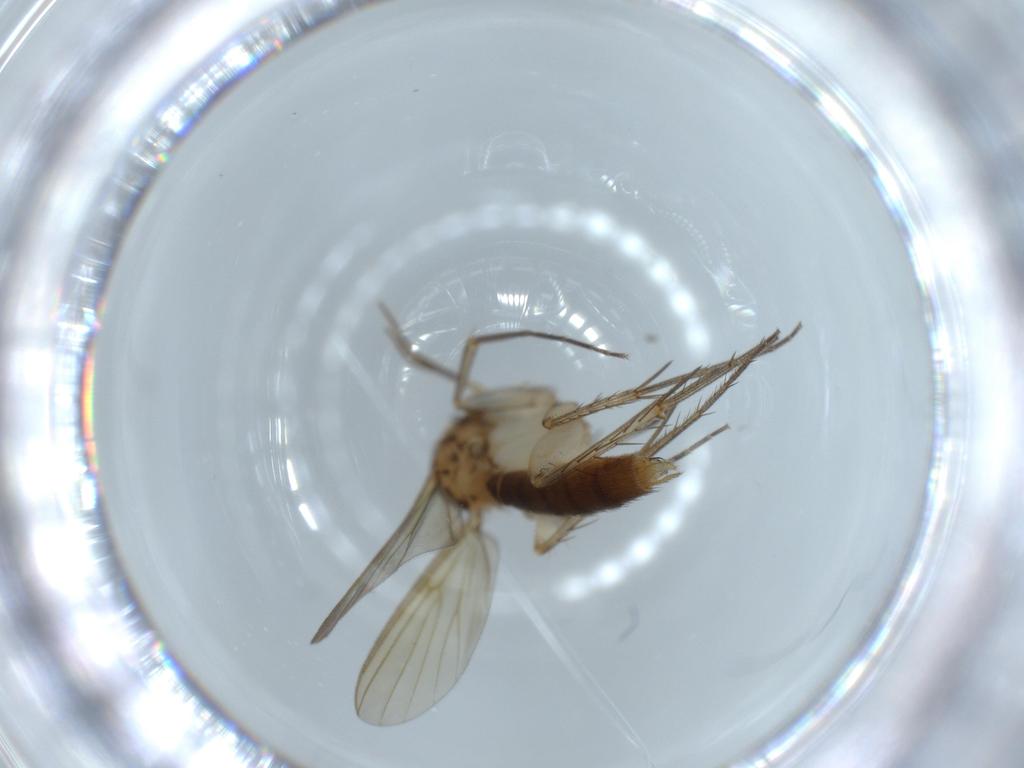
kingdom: Animalia
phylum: Arthropoda
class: Insecta
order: Diptera
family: Mycetophilidae
